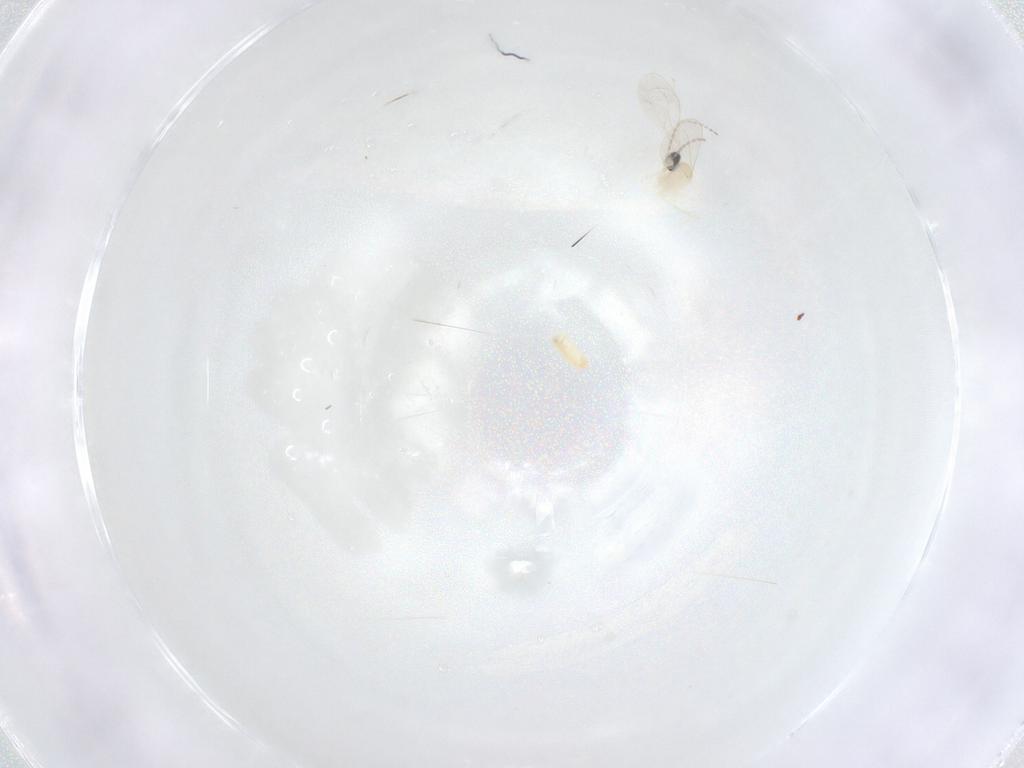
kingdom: Animalia
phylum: Arthropoda
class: Insecta
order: Diptera
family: Cecidomyiidae
